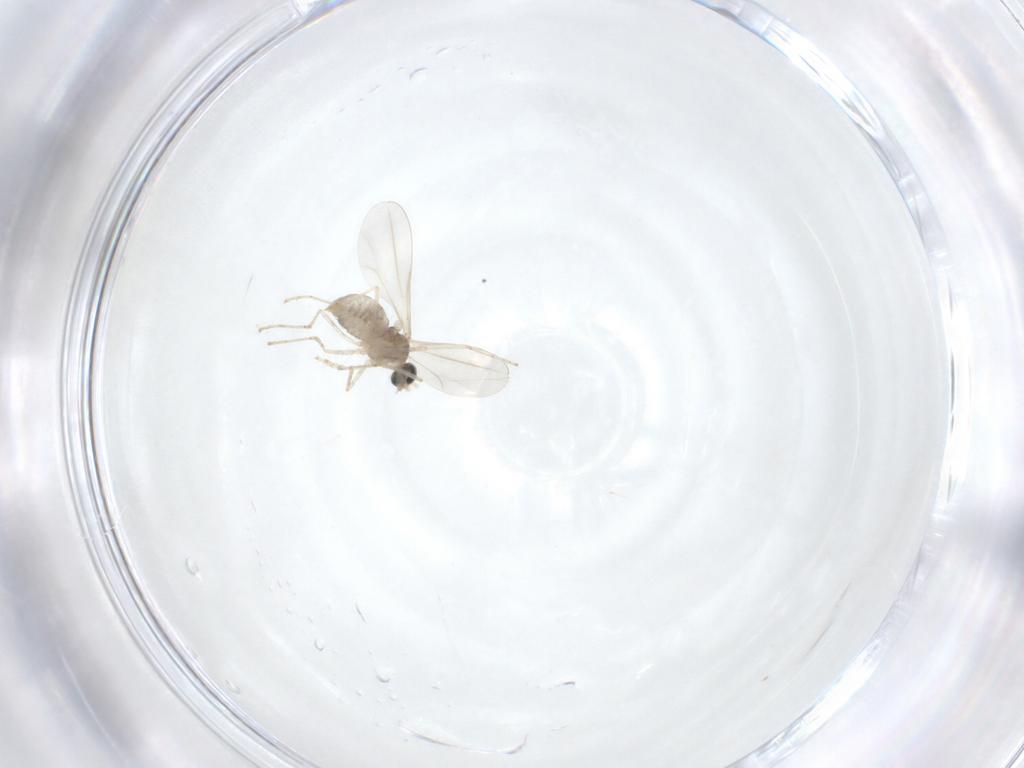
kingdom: Animalia
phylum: Arthropoda
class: Insecta
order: Diptera
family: Cecidomyiidae
